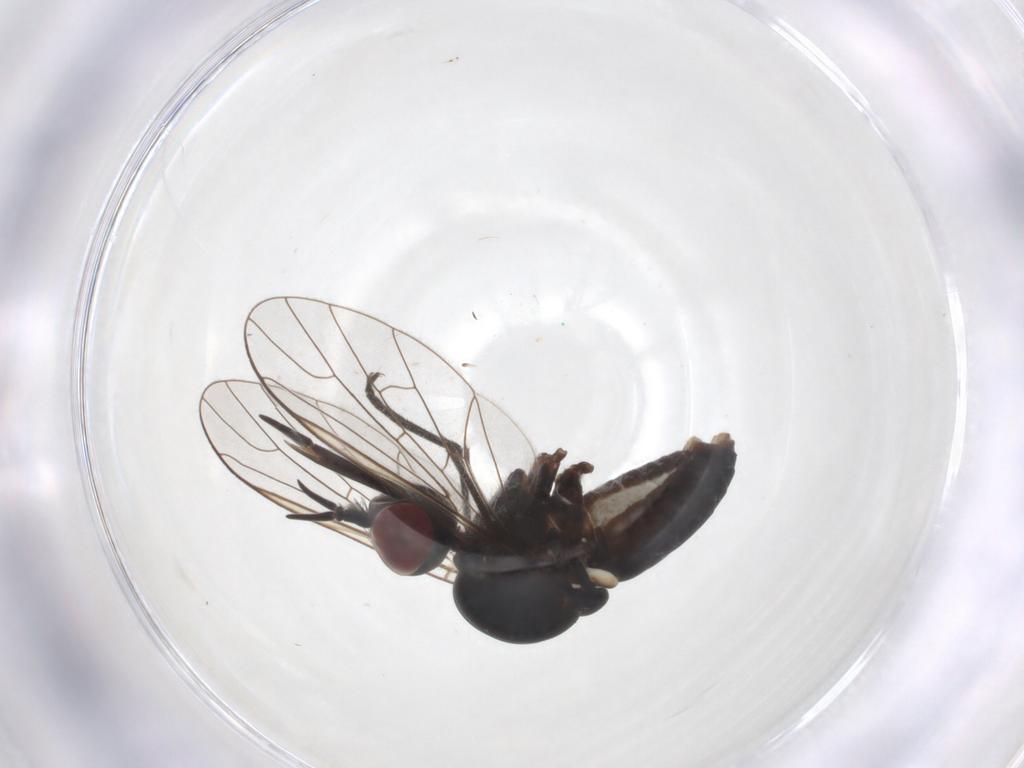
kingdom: Animalia
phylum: Arthropoda
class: Insecta
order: Diptera
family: Bombyliidae
